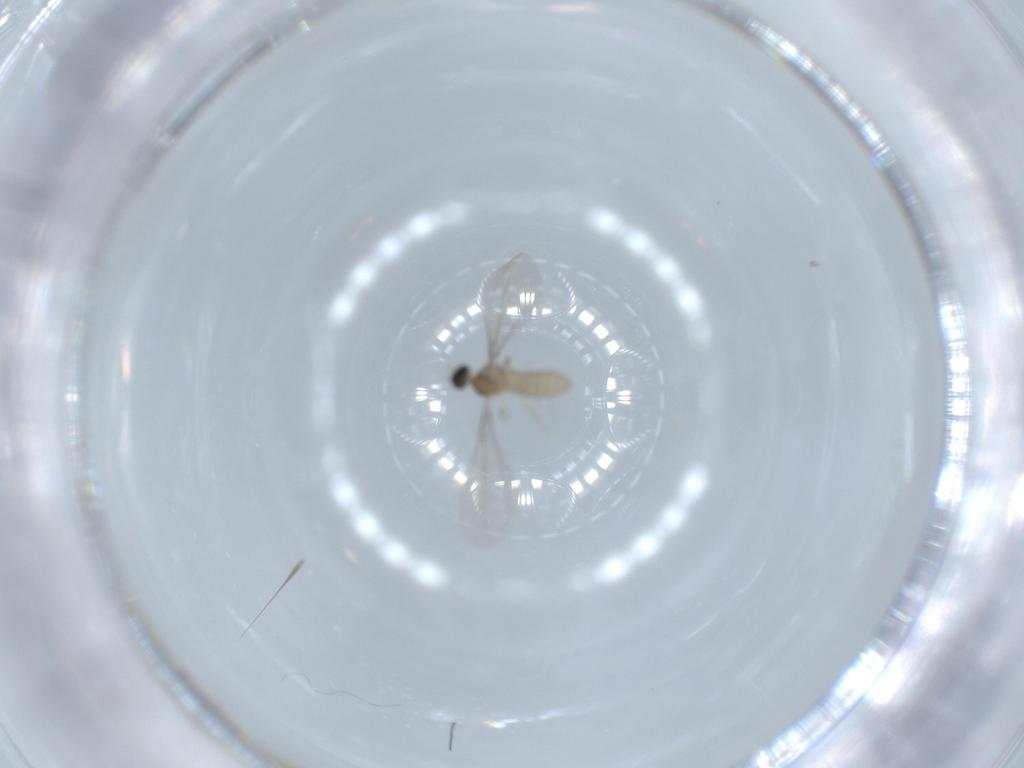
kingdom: Animalia
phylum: Arthropoda
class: Insecta
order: Diptera
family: Cecidomyiidae
